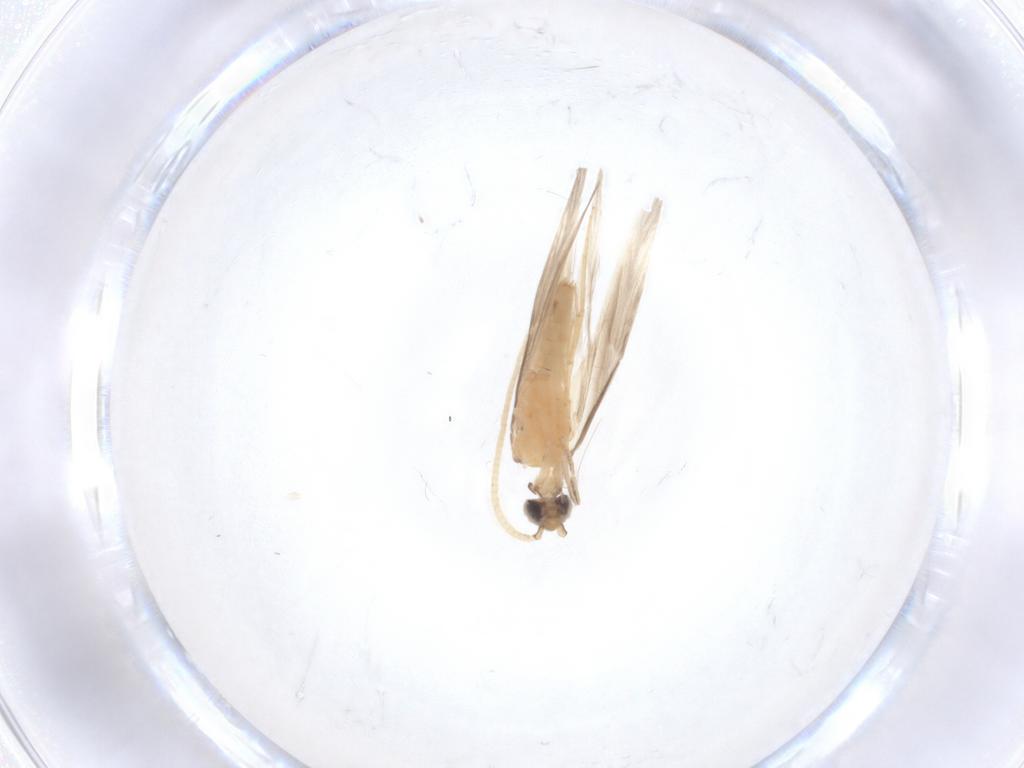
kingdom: Animalia
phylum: Arthropoda
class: Insecta
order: Trichoptera
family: Hydroptilidae
